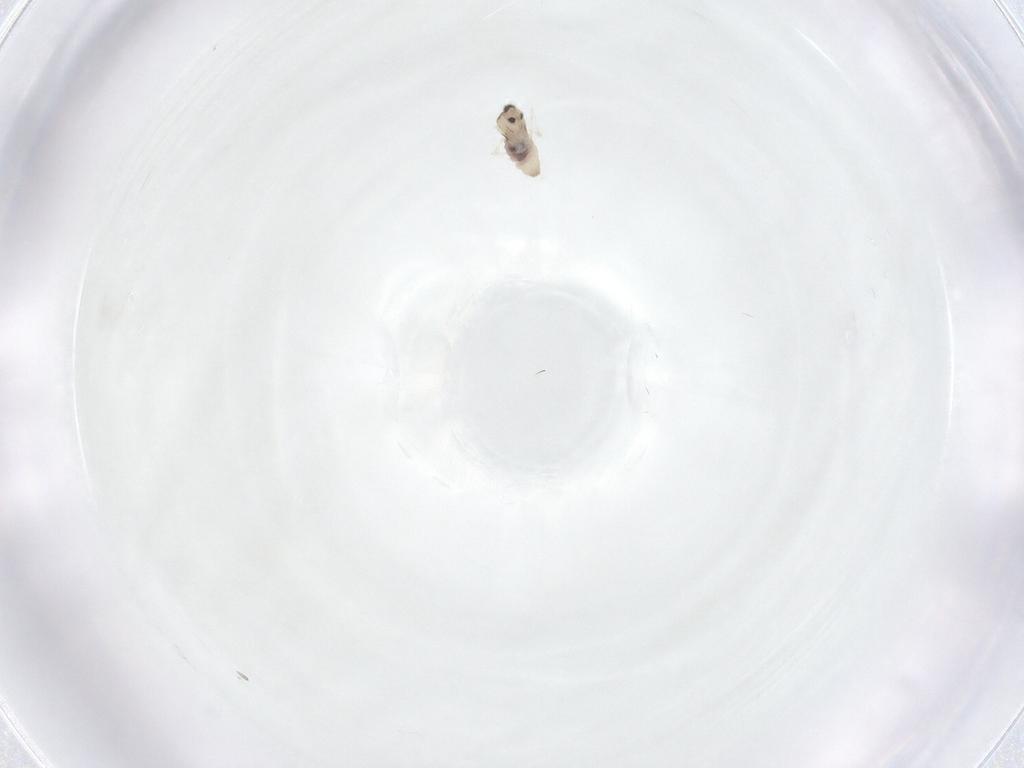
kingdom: Animalia
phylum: Arthropoda
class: Insecta
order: Diptera
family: Cecidomyiidae
